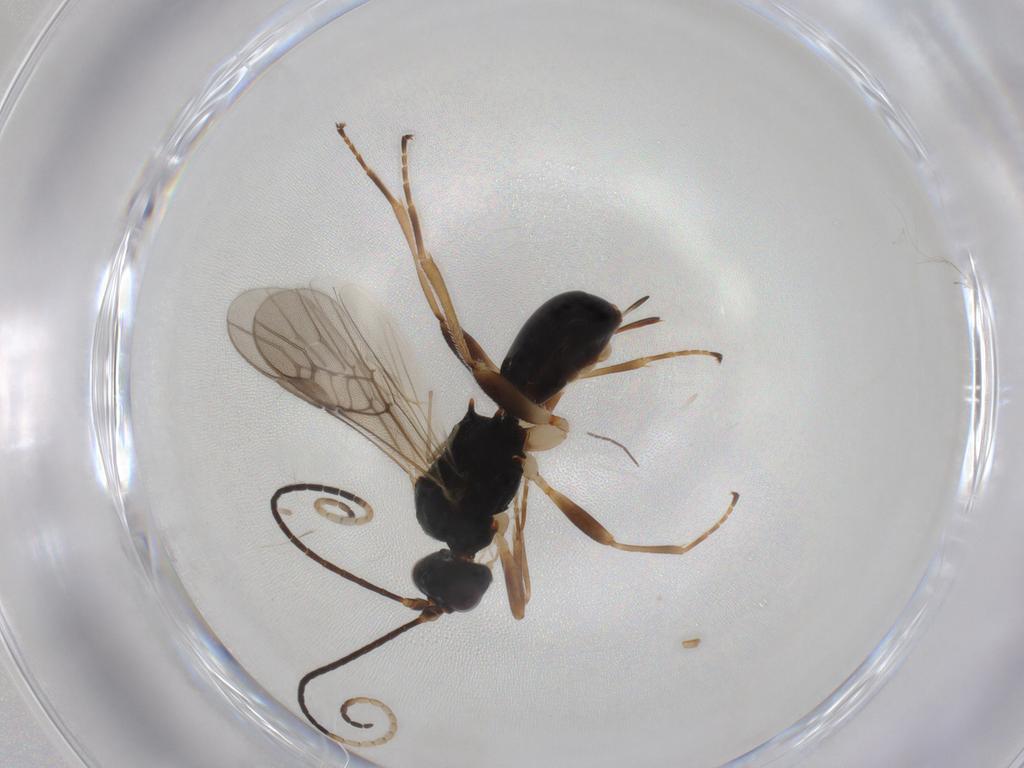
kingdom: Animalia
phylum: Arthropoda
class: Insecta
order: Hymenoptera
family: Braconidae
